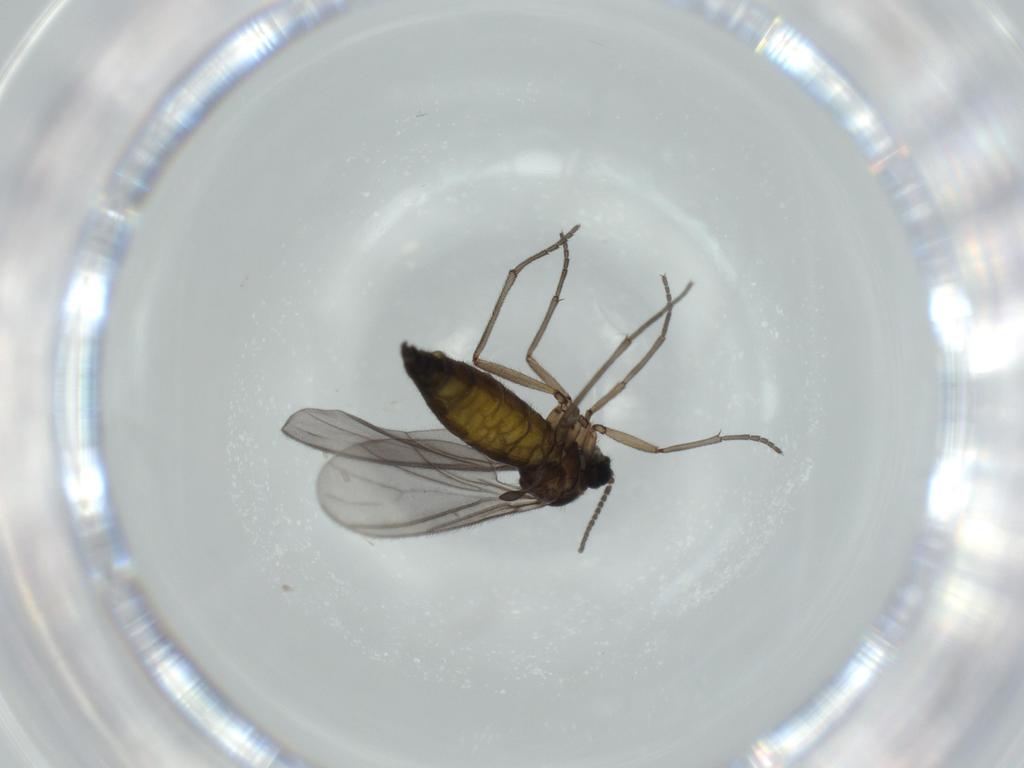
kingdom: Animalia
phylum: Arthropoda
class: Insecta
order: Diptera
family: Sciaridae
